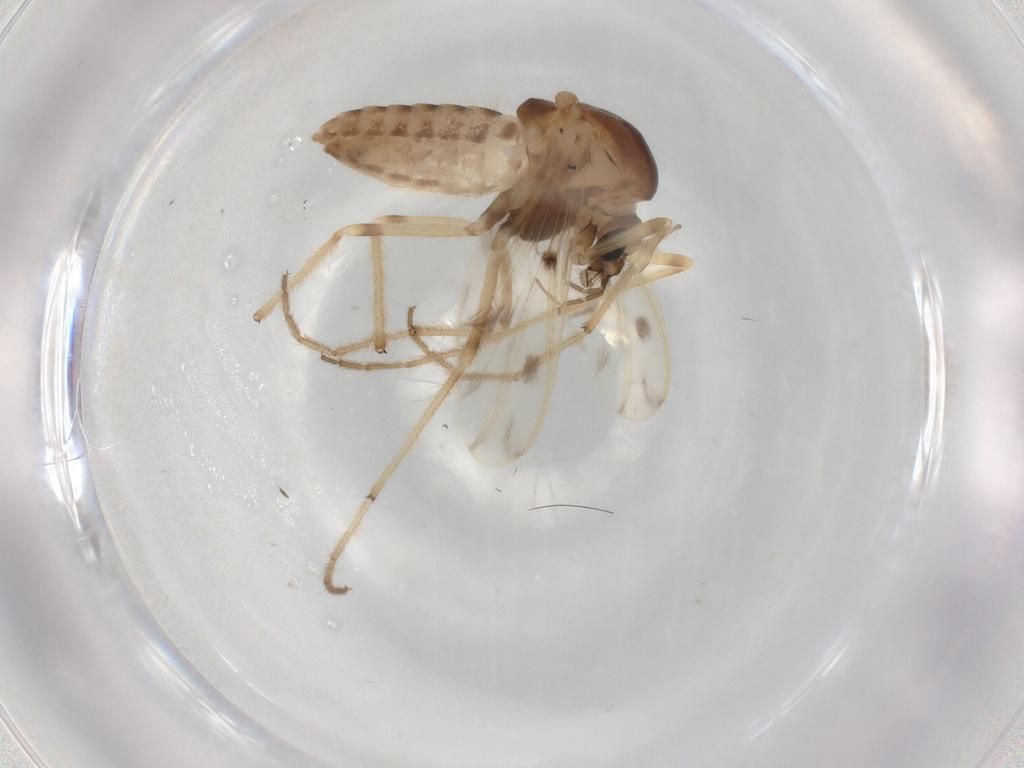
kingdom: Animalia
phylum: Arthropoda
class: Insecta
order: Diptera
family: Chironomidae
